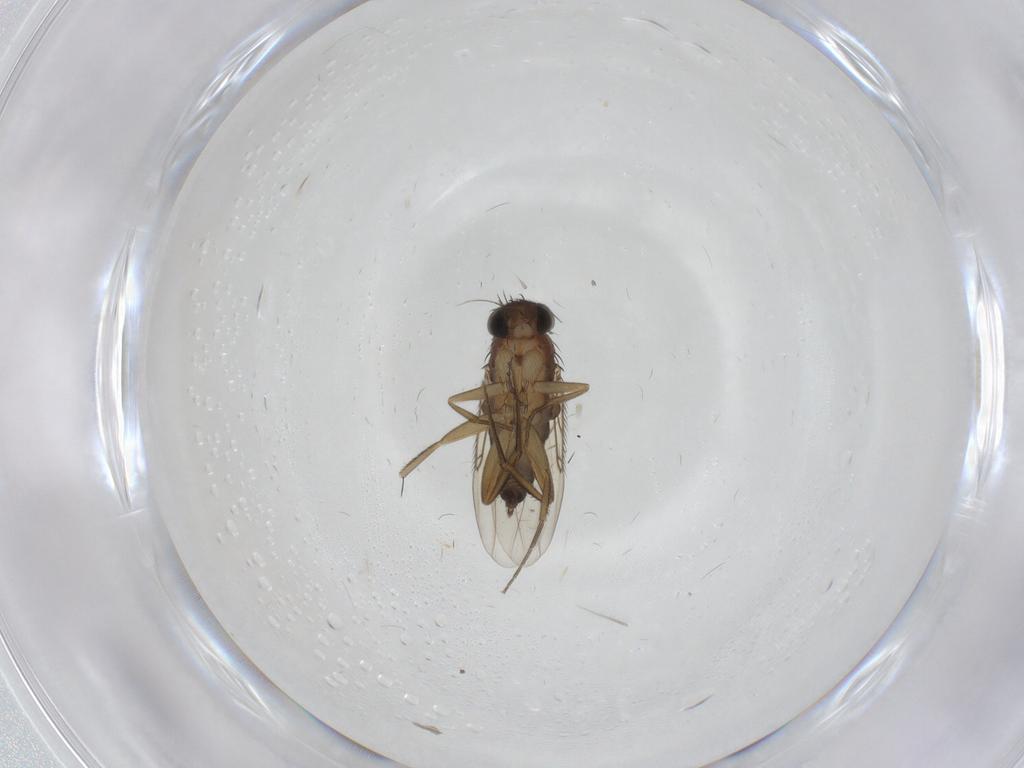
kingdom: Animalia
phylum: Arthropoda
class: Insecta
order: Diptera
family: Phoridae
